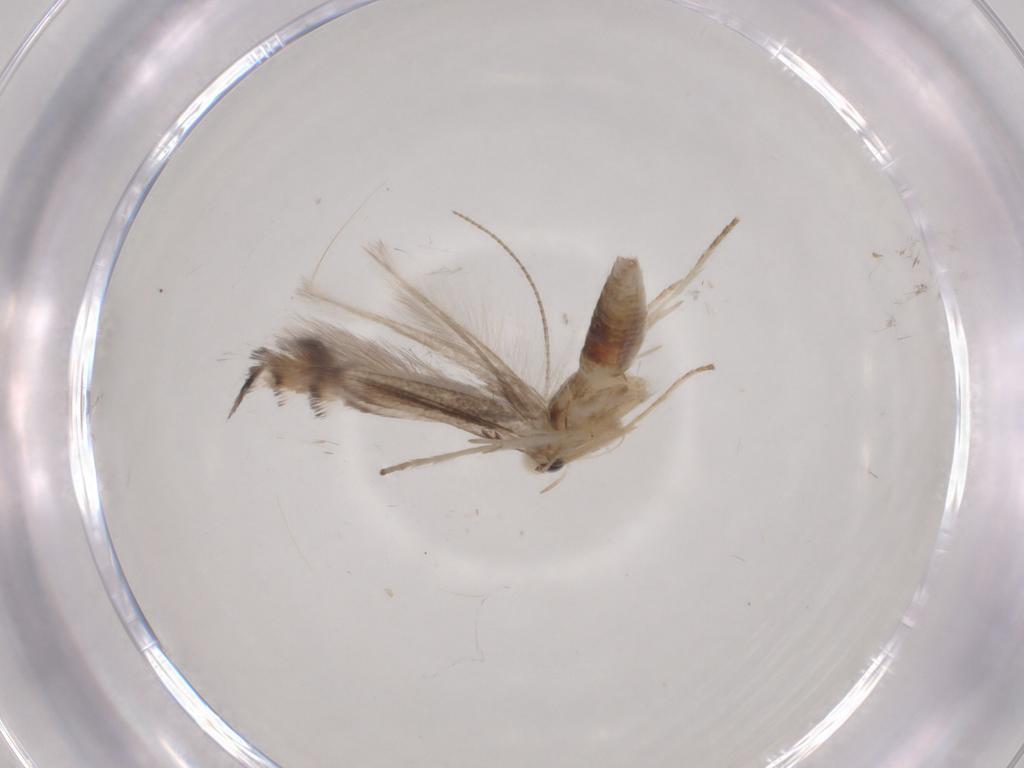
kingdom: Animalia
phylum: Arthropoda
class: Insecta
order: Lepidoptera
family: Gracillariidae
